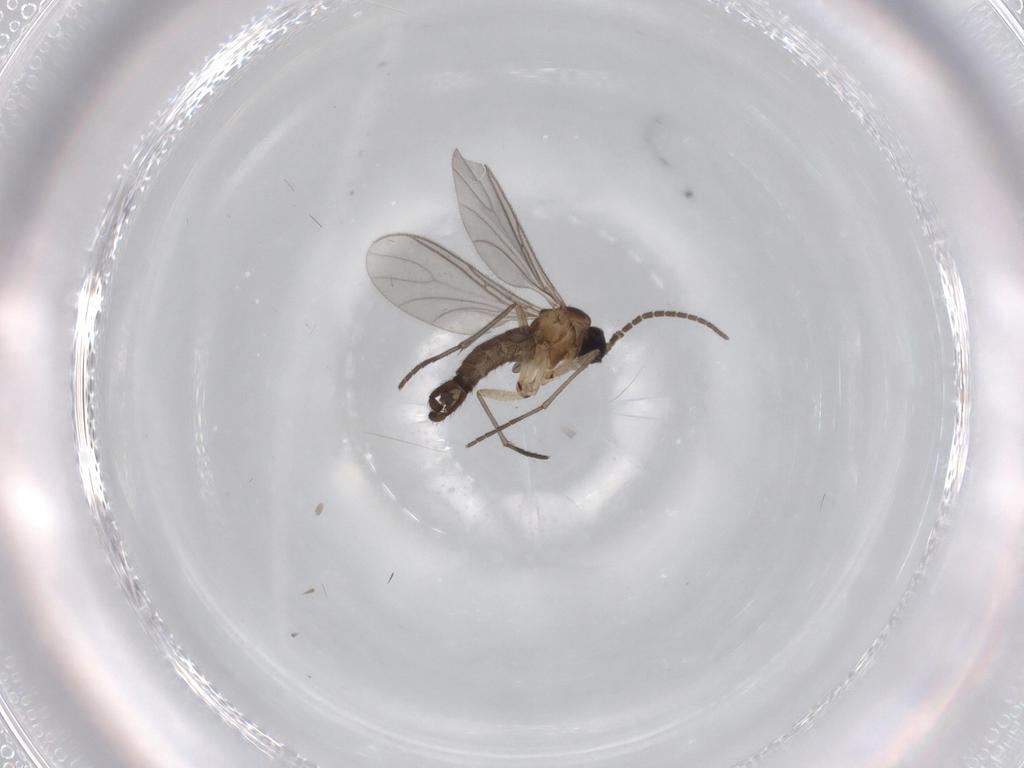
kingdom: Animalia
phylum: Arthropoda
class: Insecta
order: Diptera
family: Sciaridae
